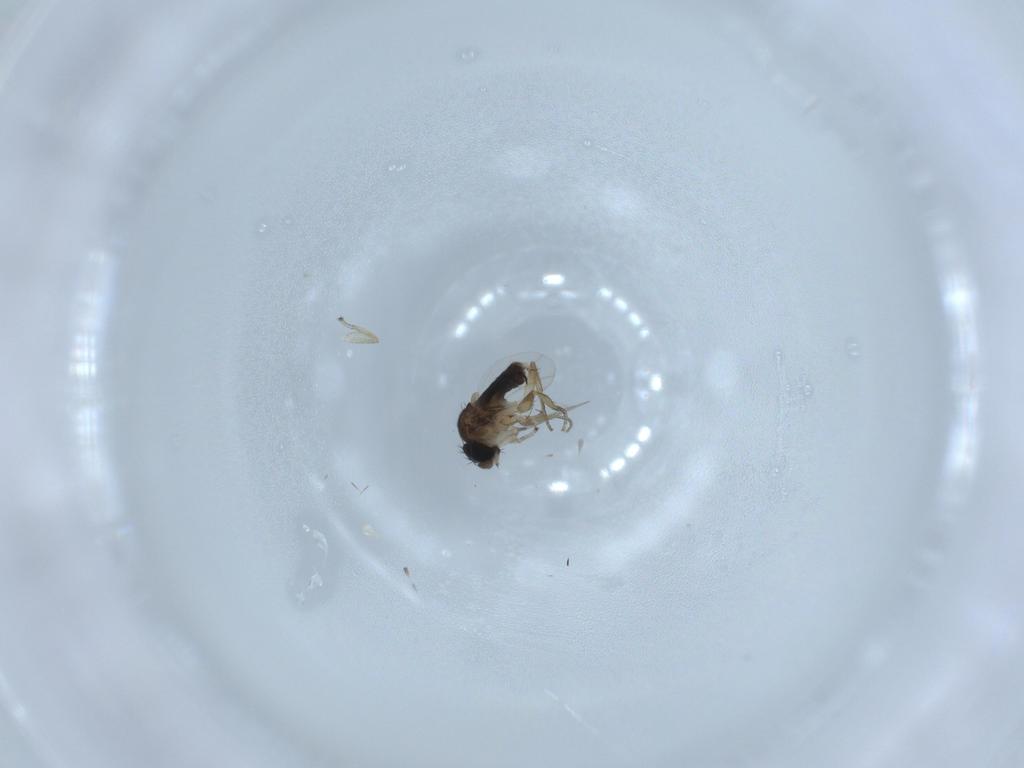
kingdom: Animalia
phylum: Arthropoda
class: Insecta
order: Diptera
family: Phoridae
